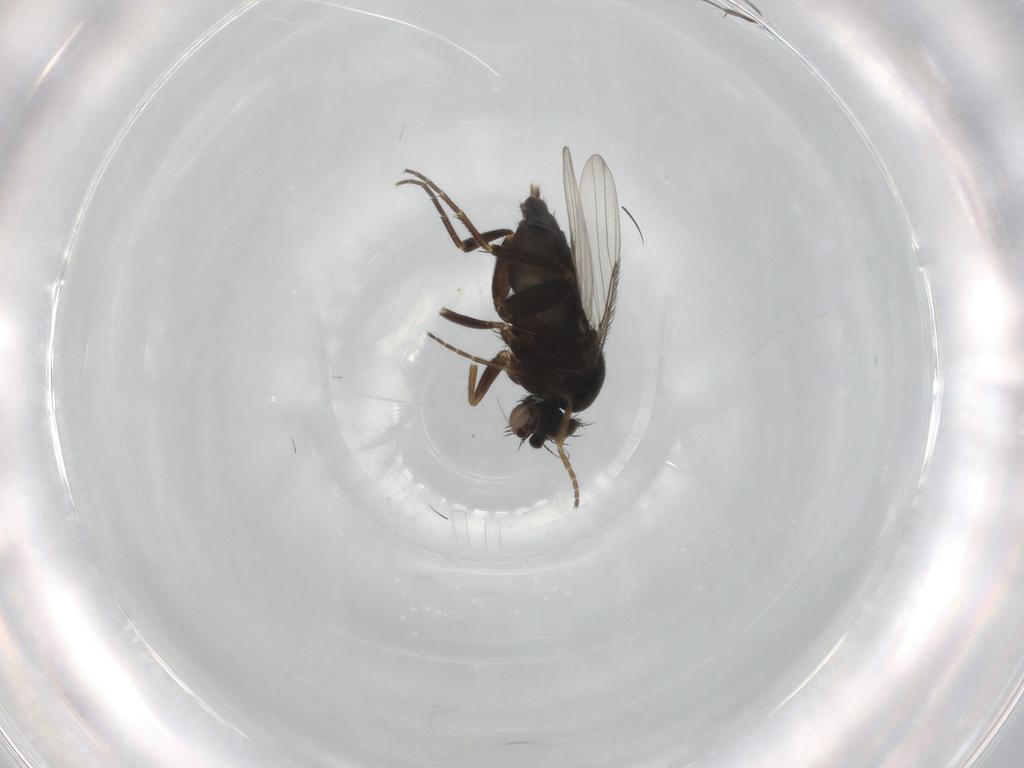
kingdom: Animalia
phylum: Arthropoda
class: Insecta
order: Diptera
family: Phoridae
